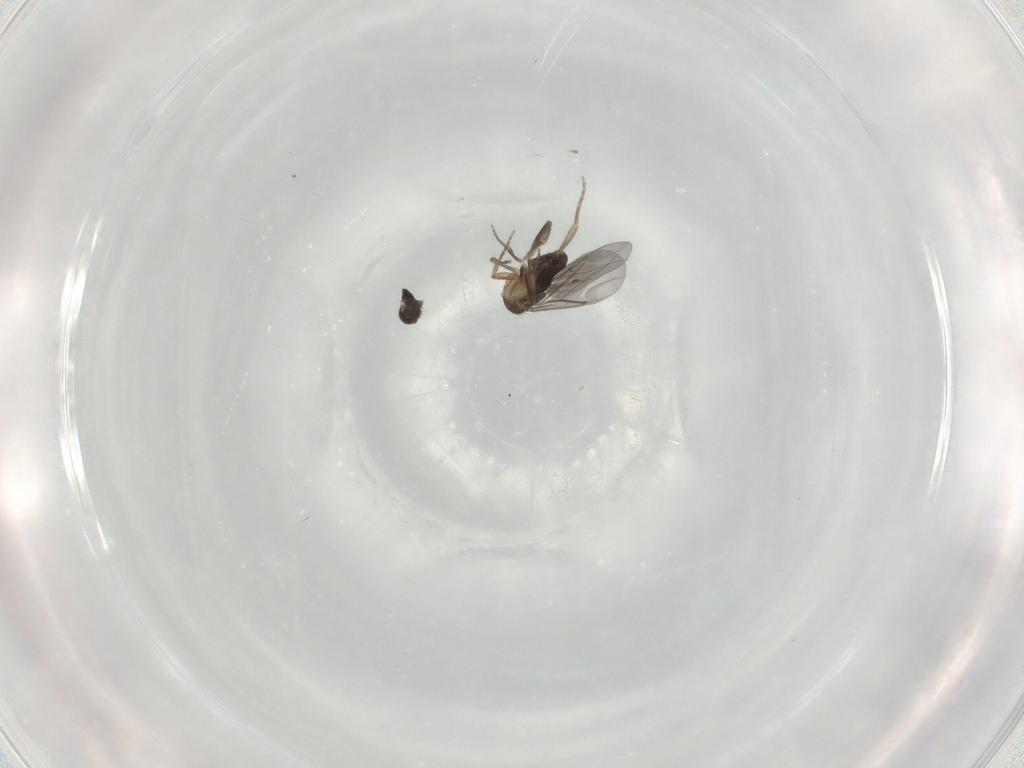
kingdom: Animalia
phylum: Arthropoda
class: Insecta
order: Diptera
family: Phoridae
